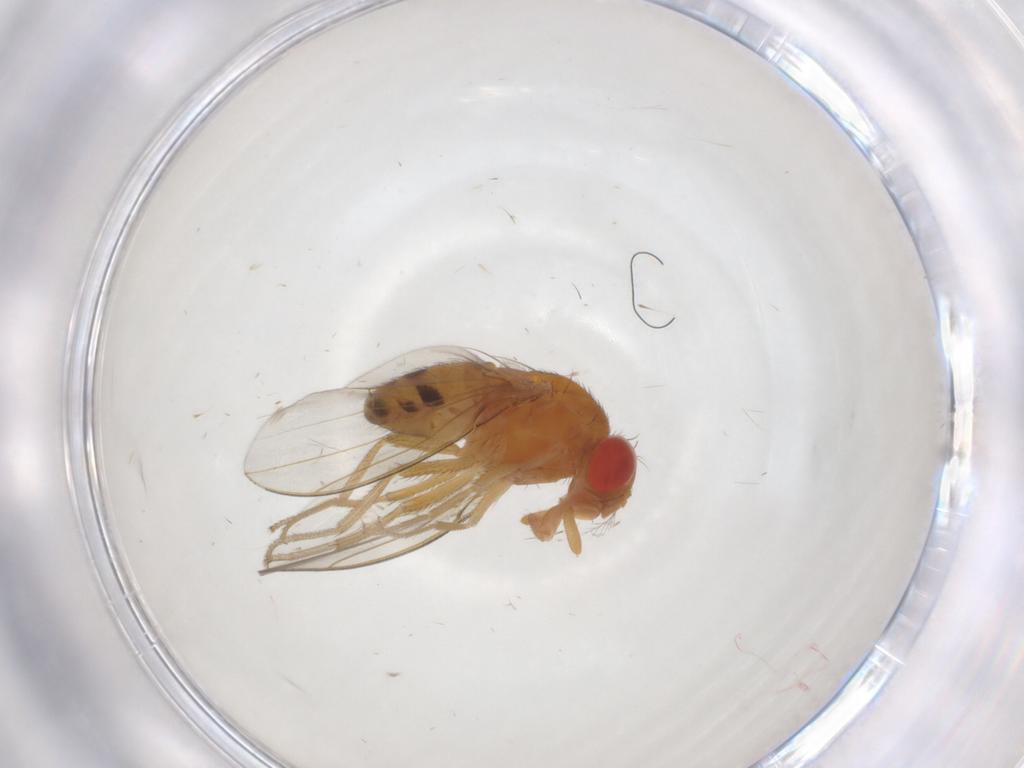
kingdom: Animalia
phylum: Arthropoda
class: Insecta
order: Diptera
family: Drosophilidae
